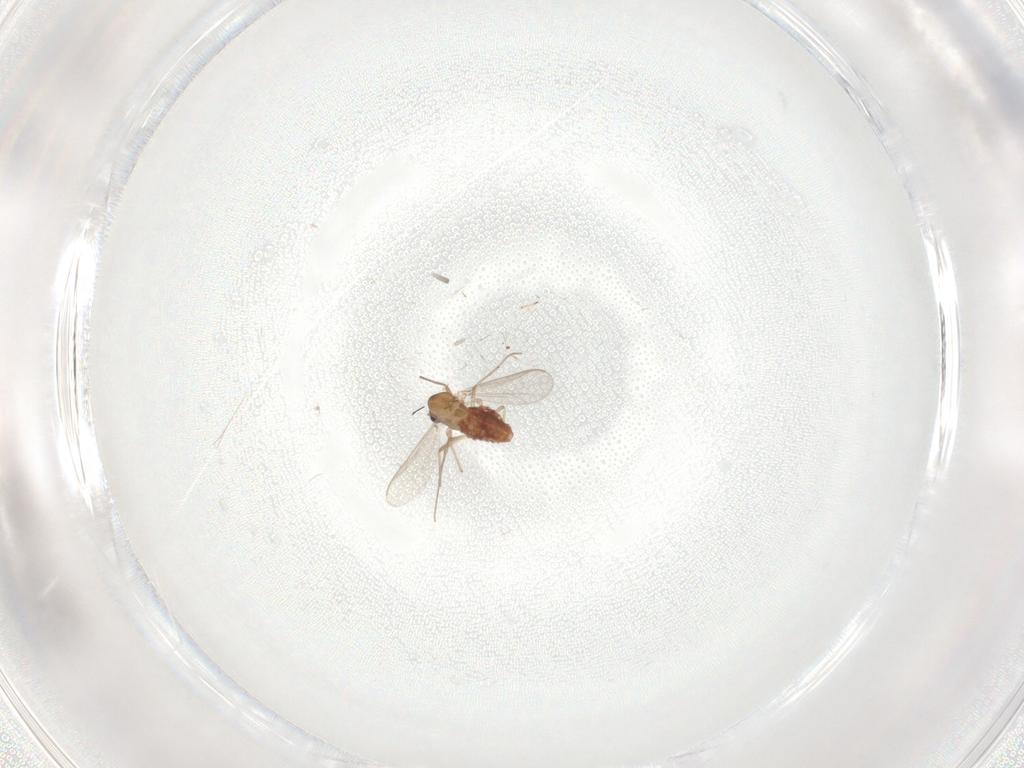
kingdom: Animalia
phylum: Arthropoda
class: Insecta
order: Diptera
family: Chironomidae
